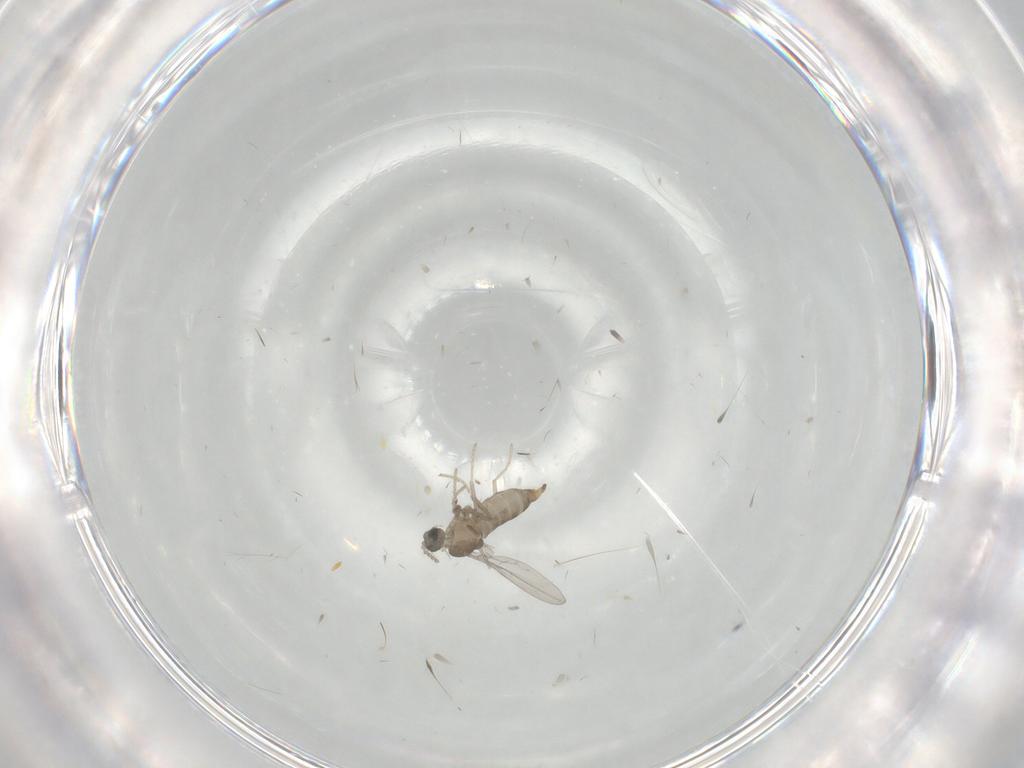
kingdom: Animalia
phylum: Arthropoda
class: Insecta
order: Diptera
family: Cecidomyiidae
